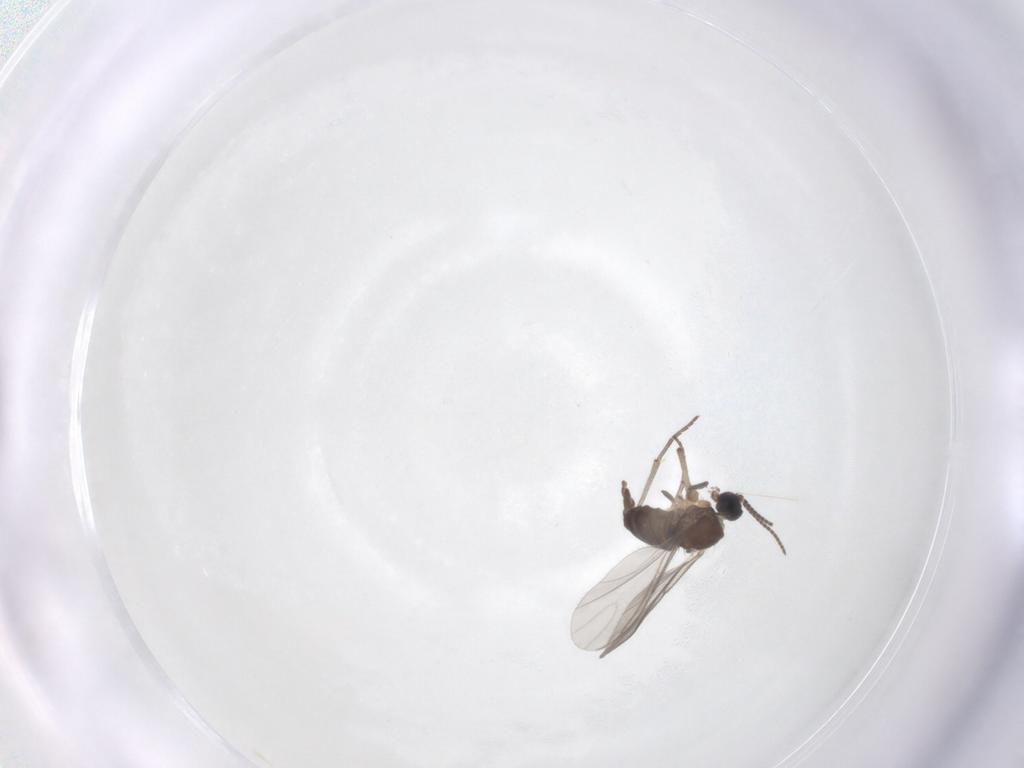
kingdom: Animalia
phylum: Arthropoda
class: Insecta
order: Diptera
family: Sciaridae
